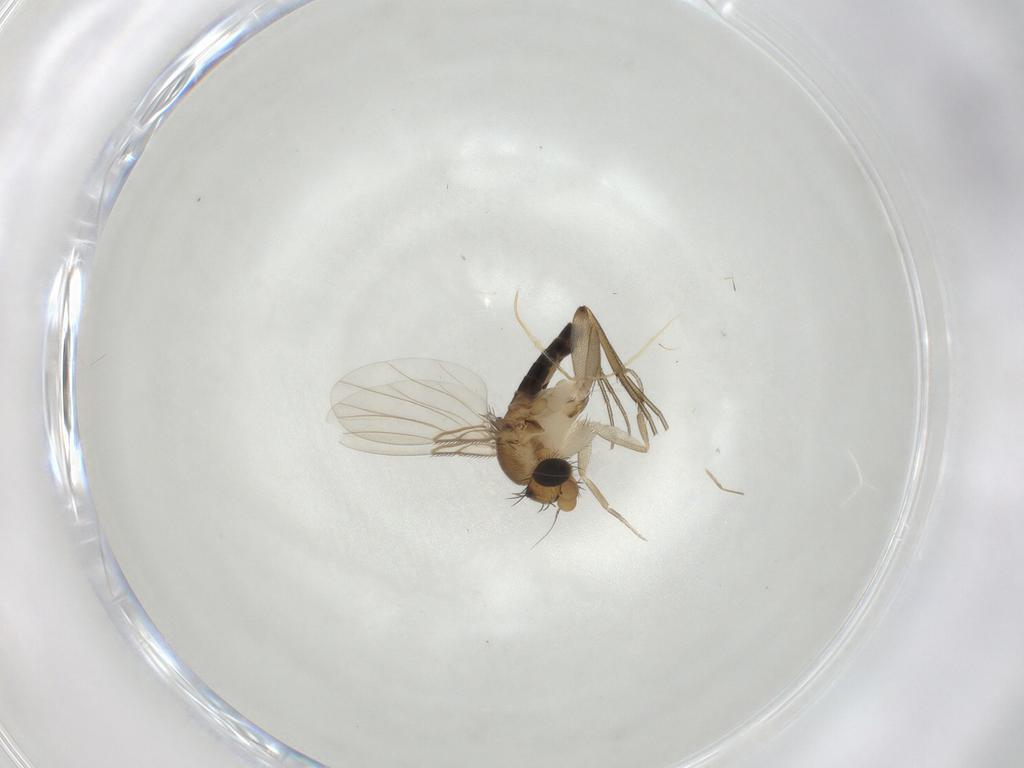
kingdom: Animalia
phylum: Arthropoda
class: Insecta
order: Diptera
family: Phoridae
